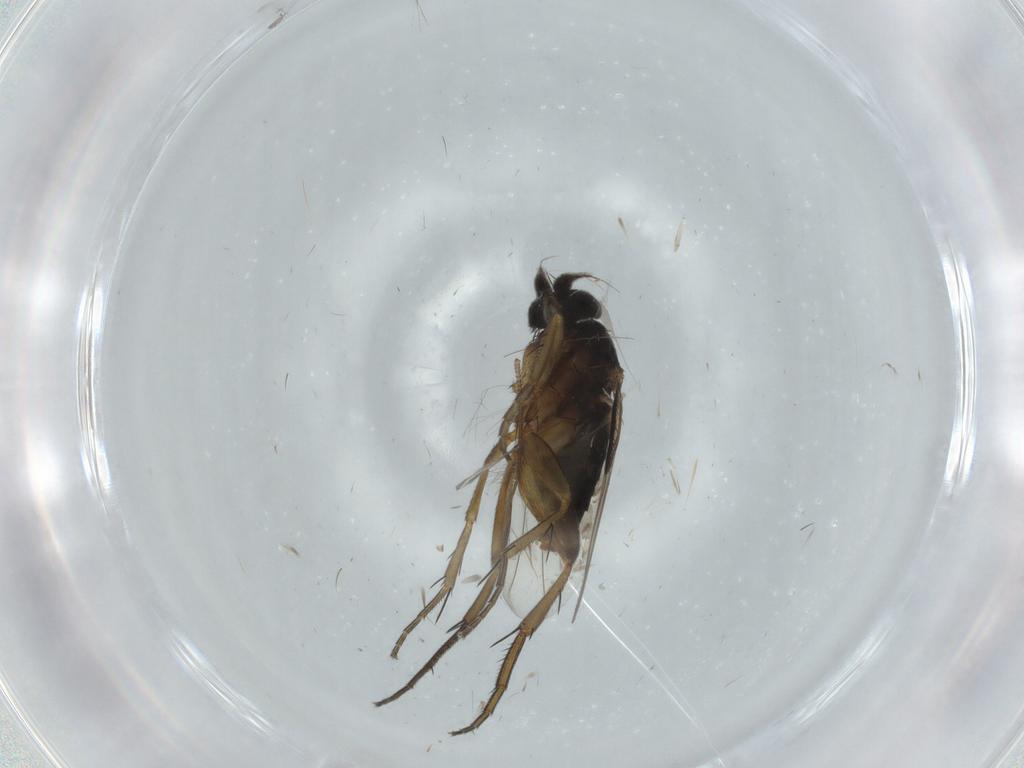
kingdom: Animalia
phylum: Arthropoda
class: Insecta
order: Diptera
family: Phoridae
